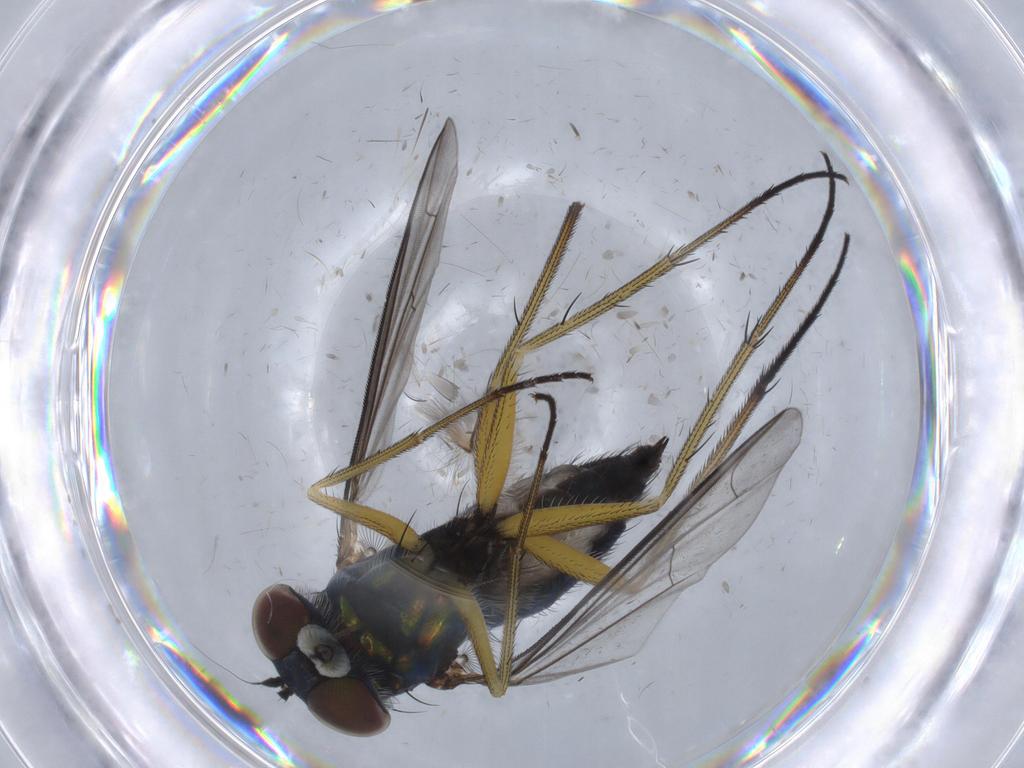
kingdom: Animalia
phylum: Arthropoda
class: Insecta
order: Diptera
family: Dolichopodidae
